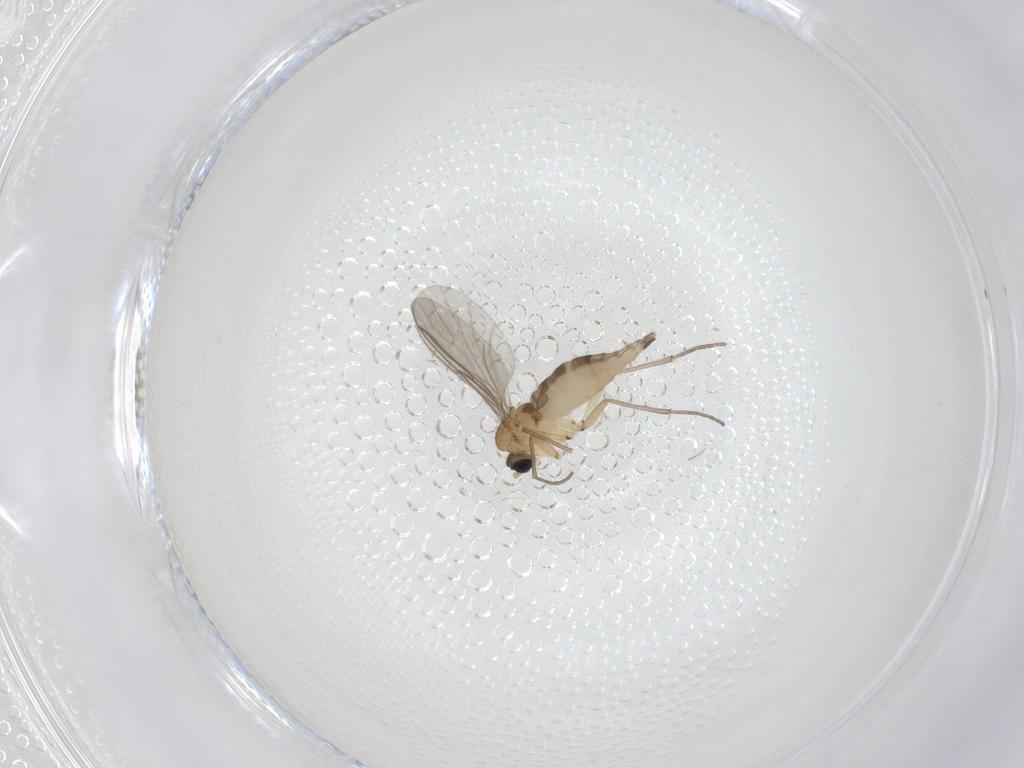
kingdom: Animalia
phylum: Arthropoda
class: Insecta
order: Diptera
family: Sciaridae
